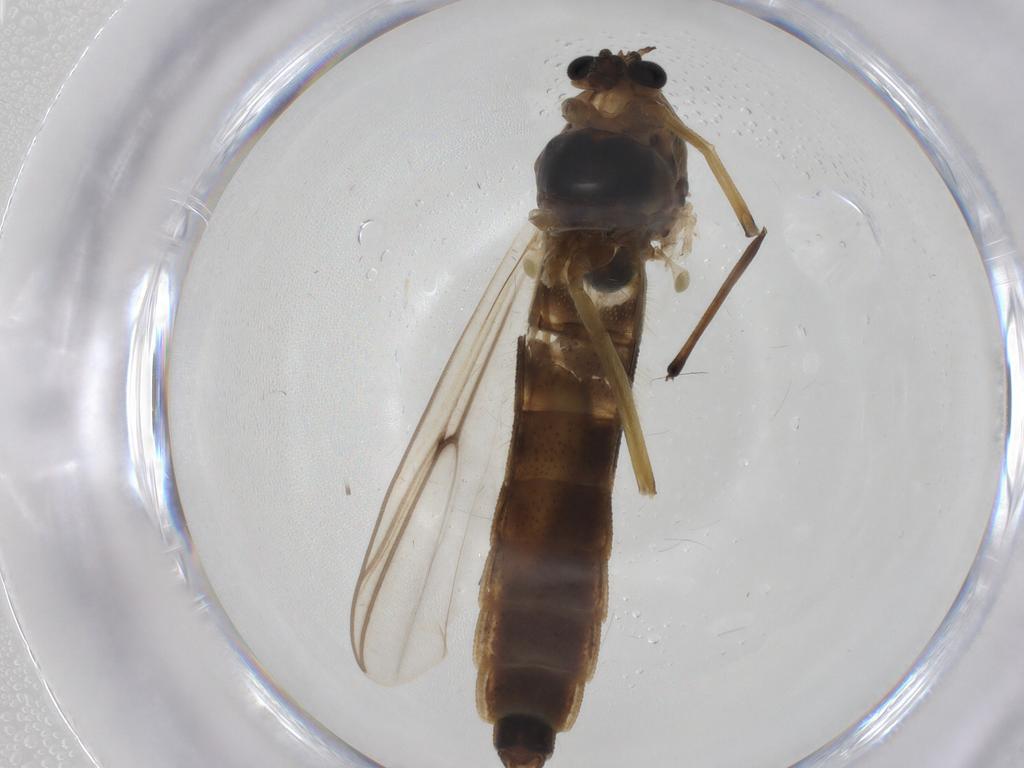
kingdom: Animalia
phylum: Arthropoda
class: Insecta
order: Diptera
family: Chironomidae
